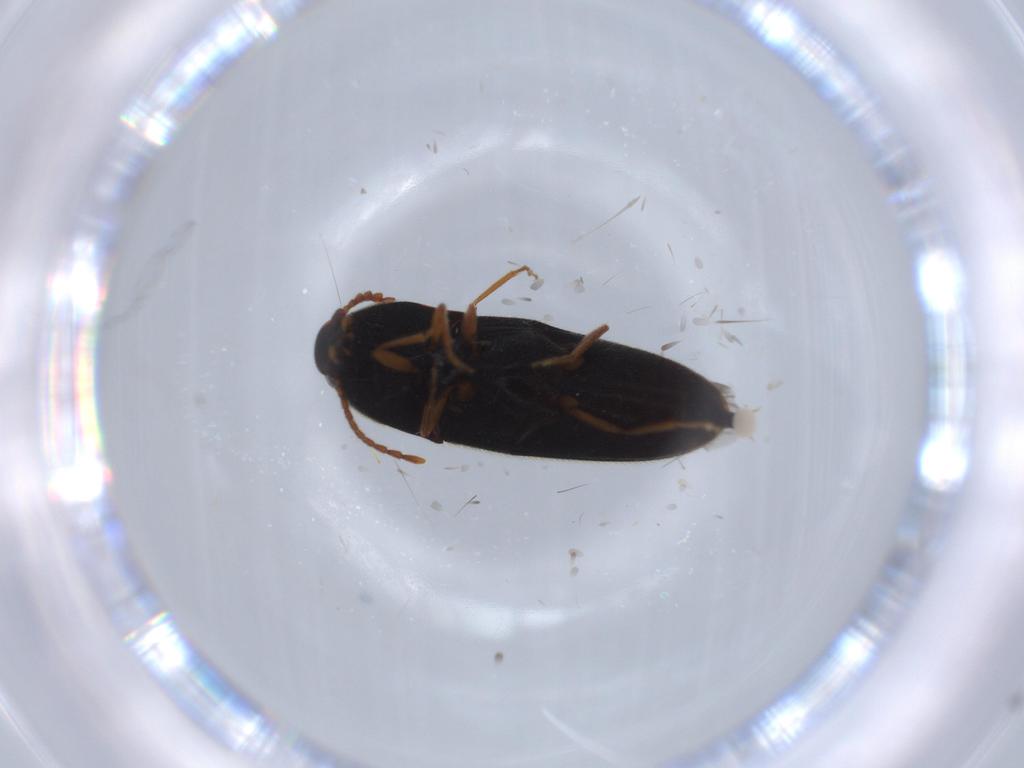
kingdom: Animalia
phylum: Arthropoda
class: Insecta
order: Coleoptera
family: Elateridae
